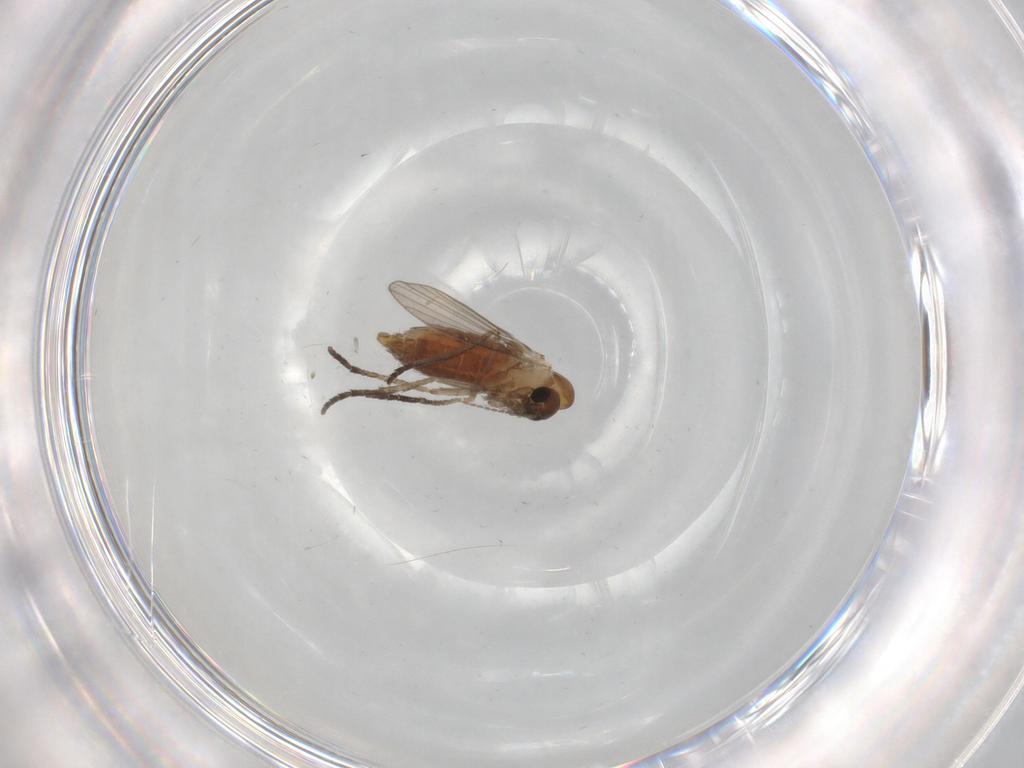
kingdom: Animalia
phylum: Arthropoda
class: Insecta
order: Diptera
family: Psychodidae
